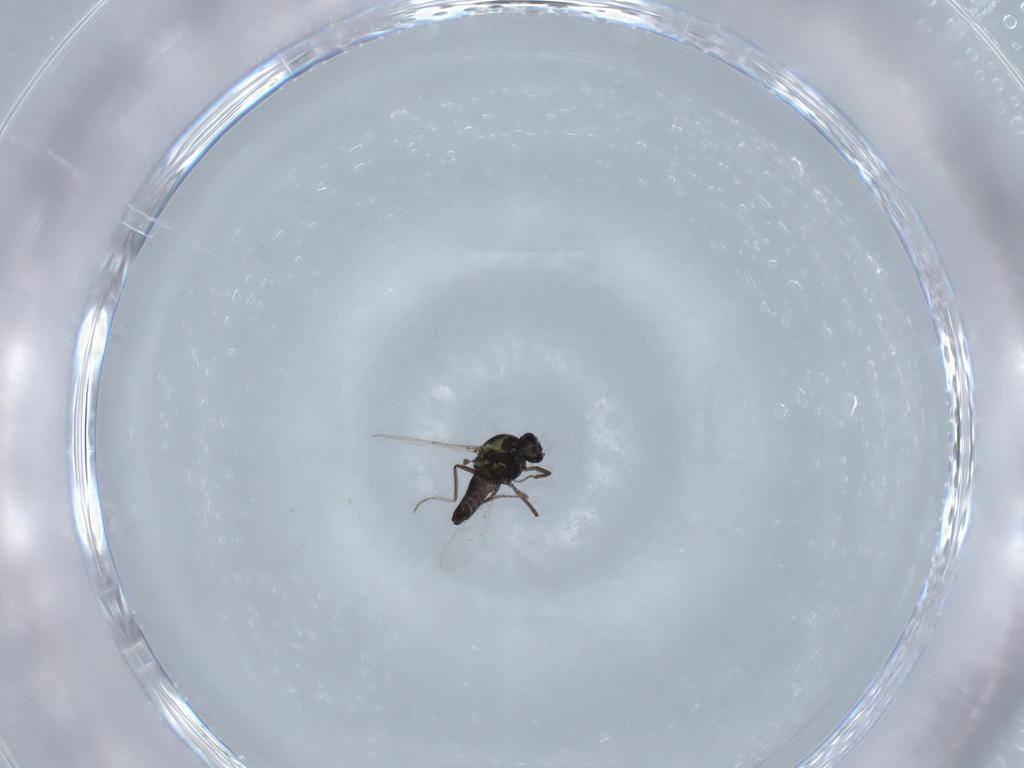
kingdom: Animalia
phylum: Arthropoda
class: Insecta
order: Diptera
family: Ceratopogonidae
